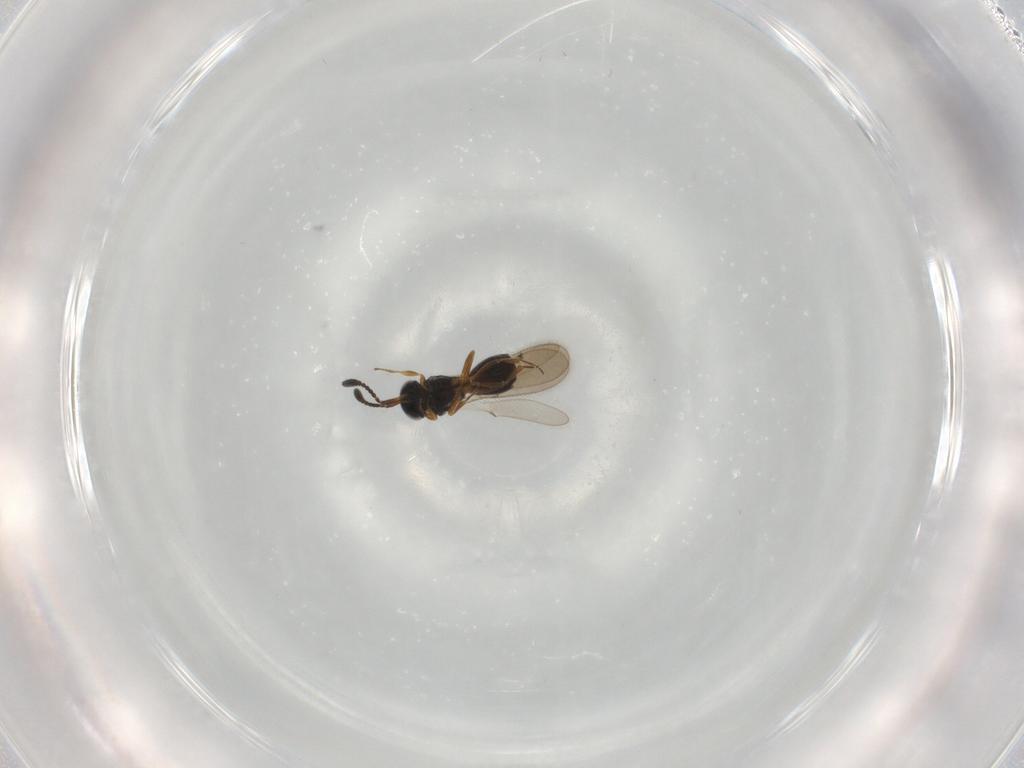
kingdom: Animalia
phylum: Arthropoda
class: Insecta
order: Hymenoptera
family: Scelionidae
